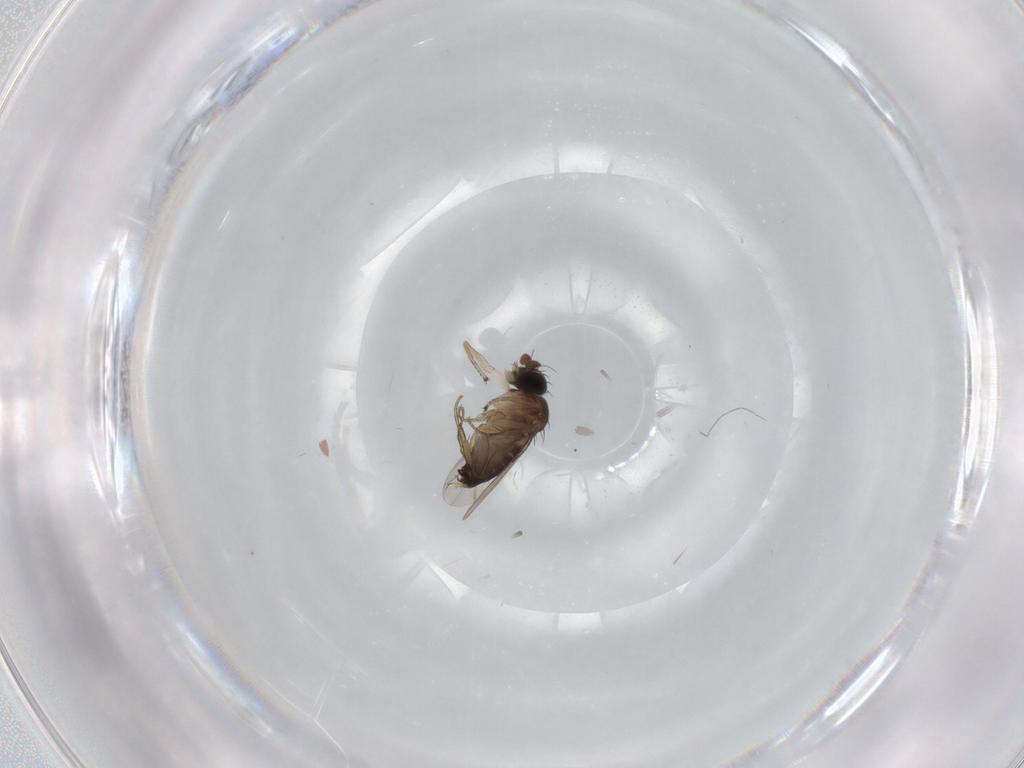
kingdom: Animalia
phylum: Arthropoda
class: Insecta
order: Diptera
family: Phoridae
